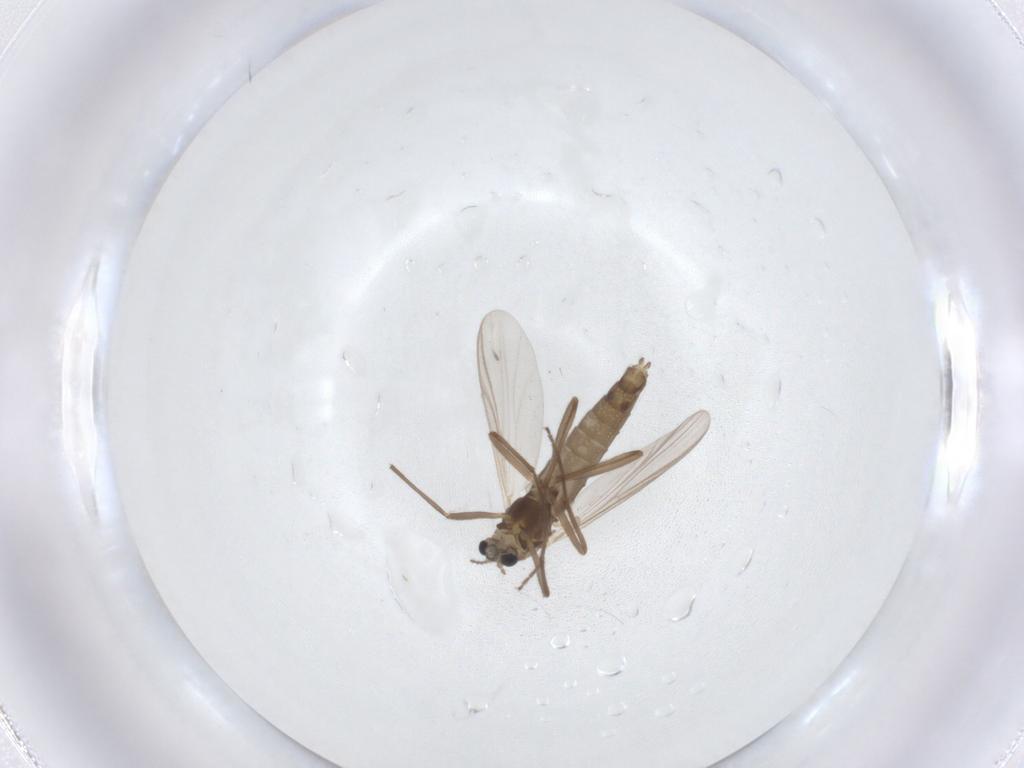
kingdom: Animalia
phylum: Arthropoda
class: Insecta
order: Diptera
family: Chironomidae
